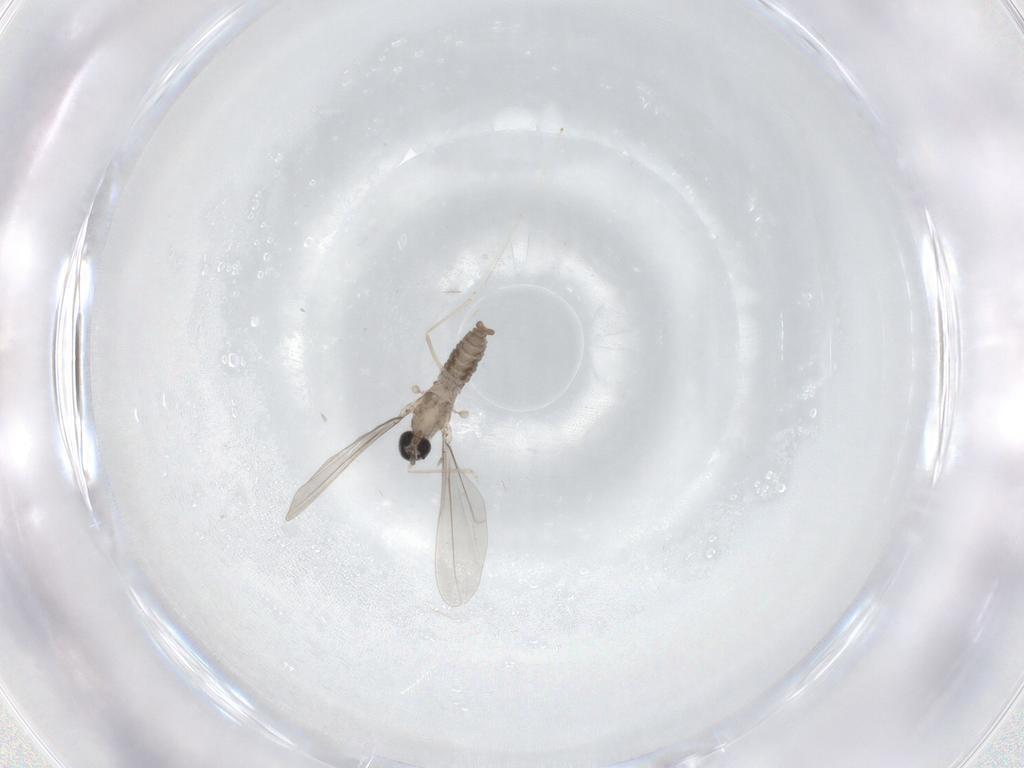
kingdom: Animalia
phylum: Arthropoda
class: Insecta
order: Diptera
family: Cecidomyiidae
